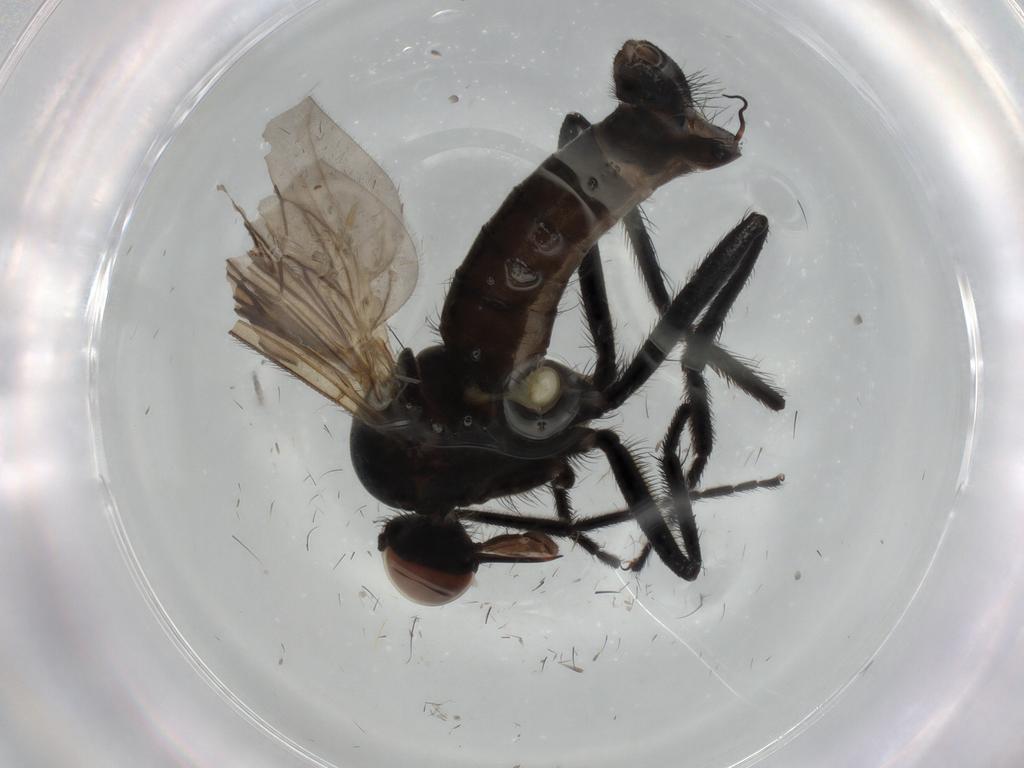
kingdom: Animalia
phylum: Arthropoda
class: Insecta
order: Diptera
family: Empididae
